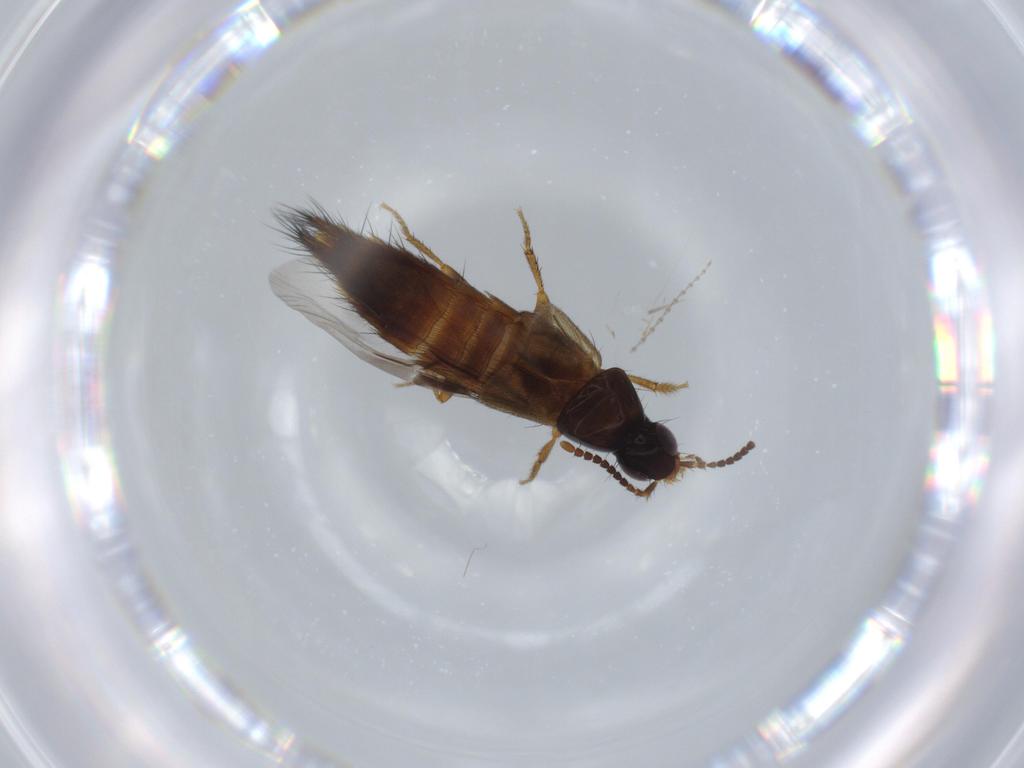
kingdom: Animalia
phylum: Arthropoda
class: Insecta
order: Coleoptera
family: Staphylinidae
